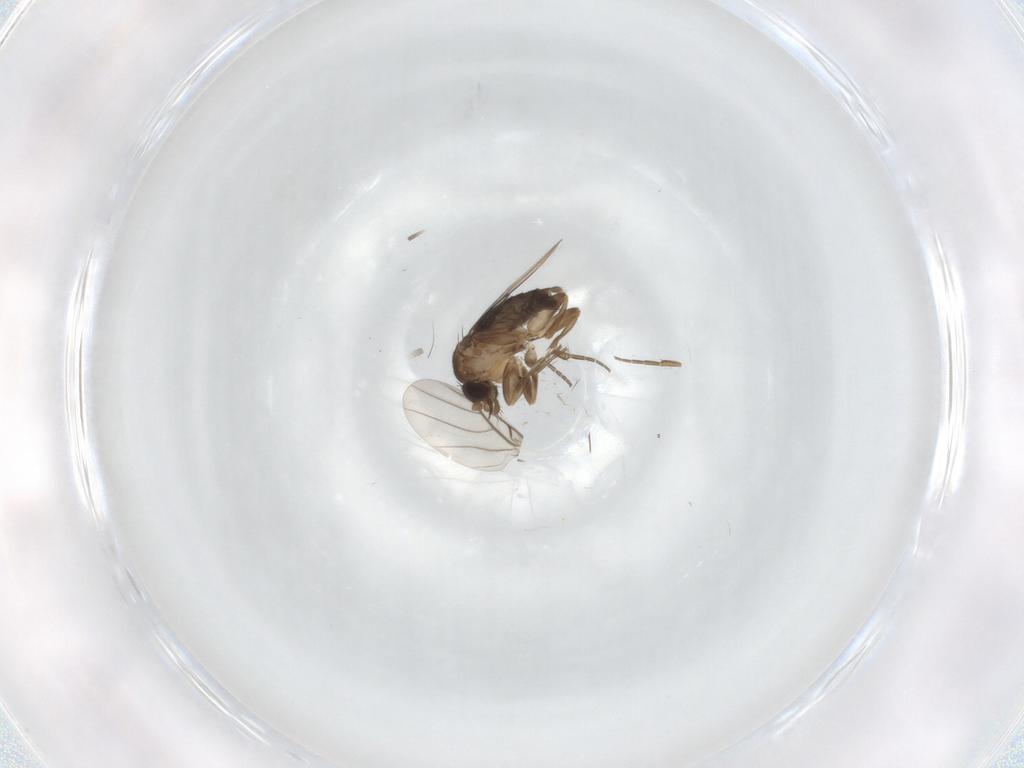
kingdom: Animalia
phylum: Arthropoda
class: Insecta
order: Diptera
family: Phoridae
